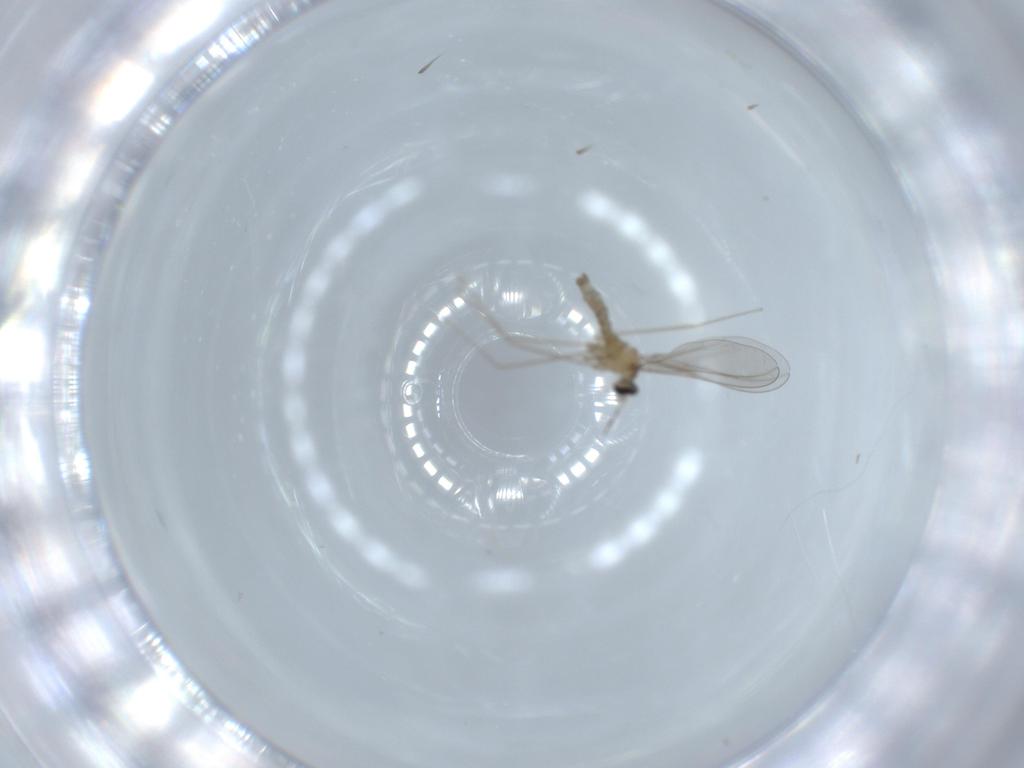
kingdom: Animalia
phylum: Arthropoda
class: Insecta
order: Diptera
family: Cecidomyiidae
